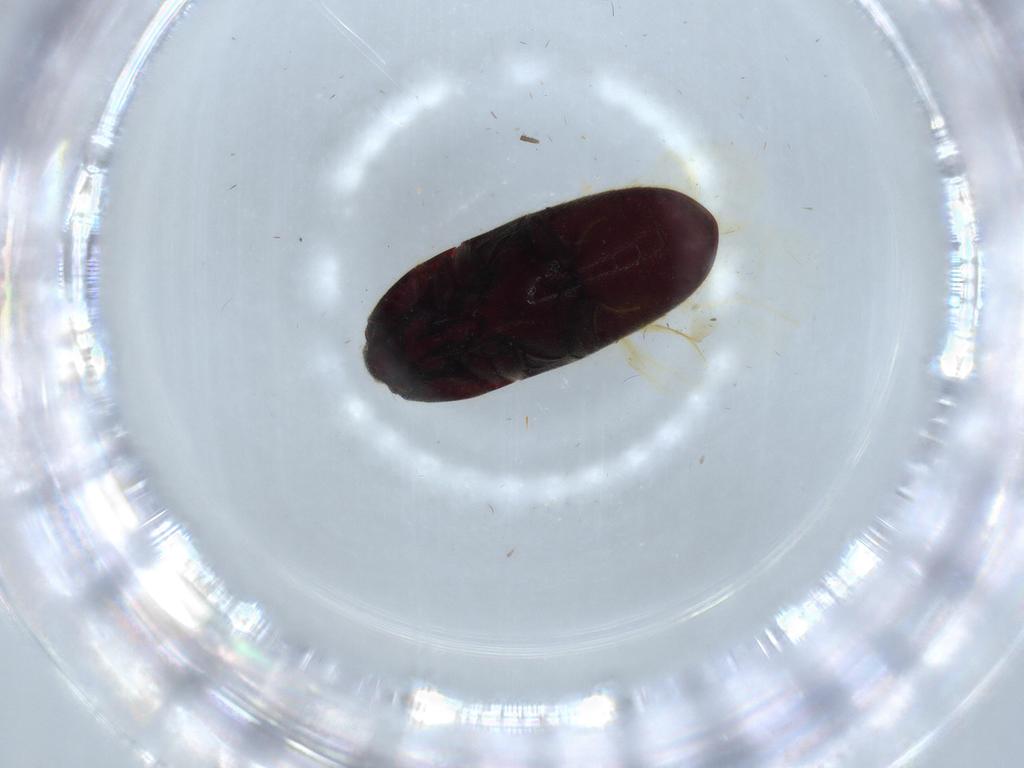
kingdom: Animalia
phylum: Arthropoda
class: Insecta
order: Coleoptera
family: Throscidae
